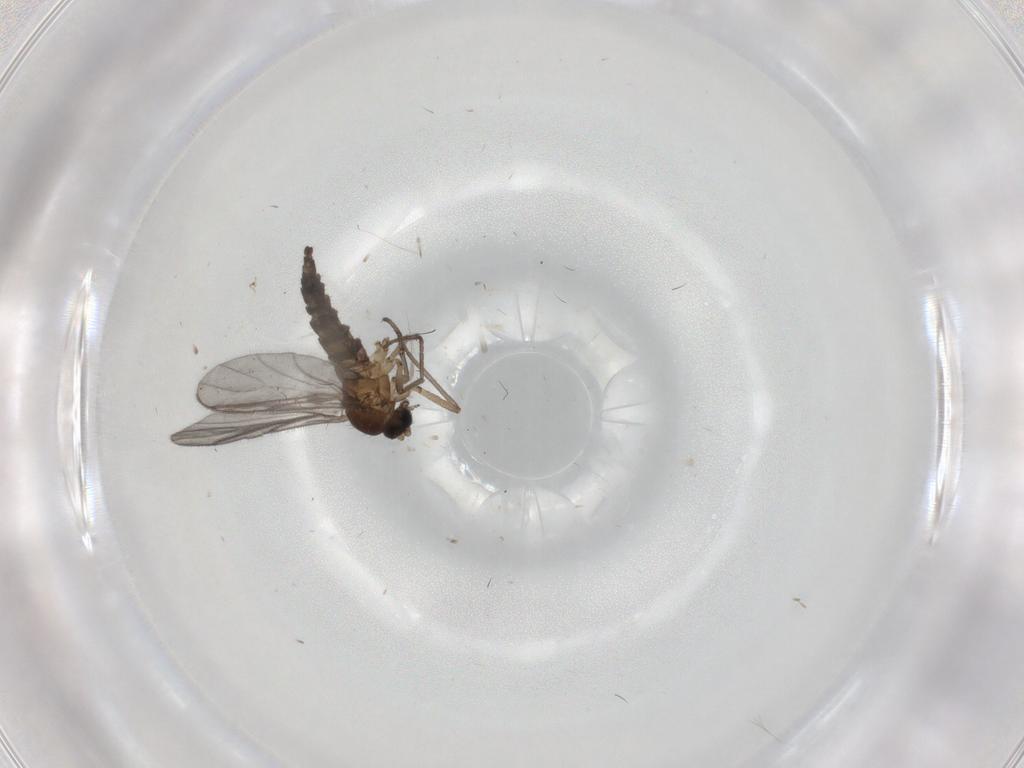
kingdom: Animalia
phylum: Arthropoda
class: Insecta
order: Diptera
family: Sciaridae
